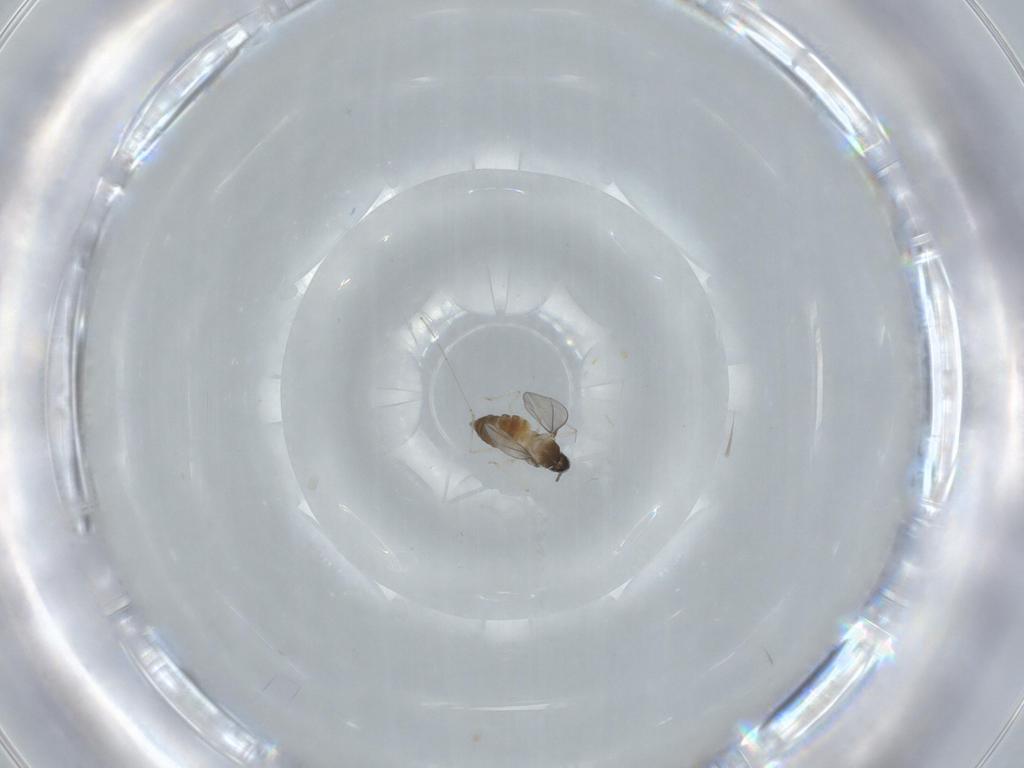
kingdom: Animalia
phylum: Arthropoda
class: Insecta
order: Diptera
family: Cecidomyiidae
